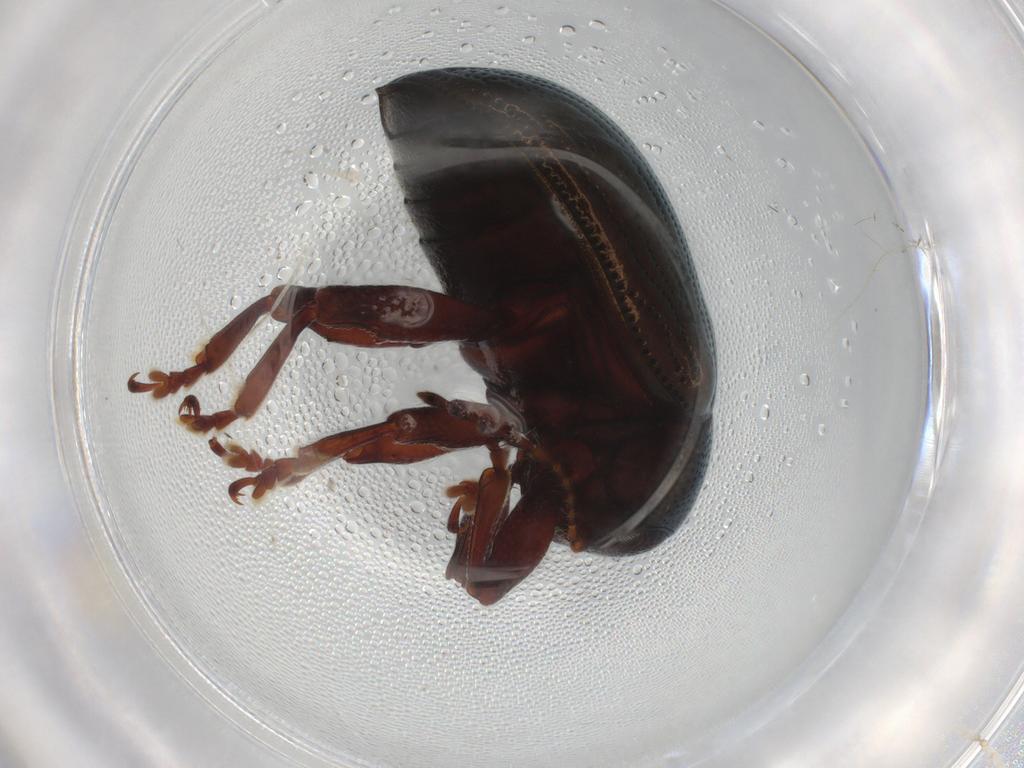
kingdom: Animalia
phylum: Arthropoda
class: Insecta
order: Coleoptera
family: Chrysomelidae
